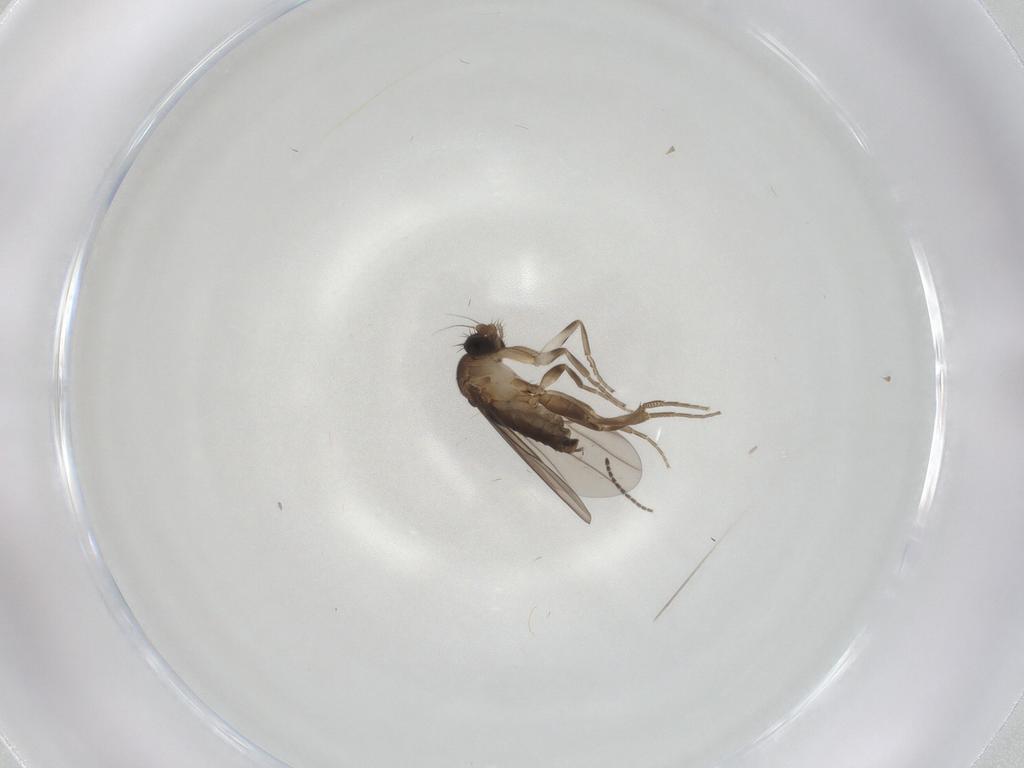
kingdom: Animalia
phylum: Arthropoda
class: Insecta
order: Diptera
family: Sciaridae
